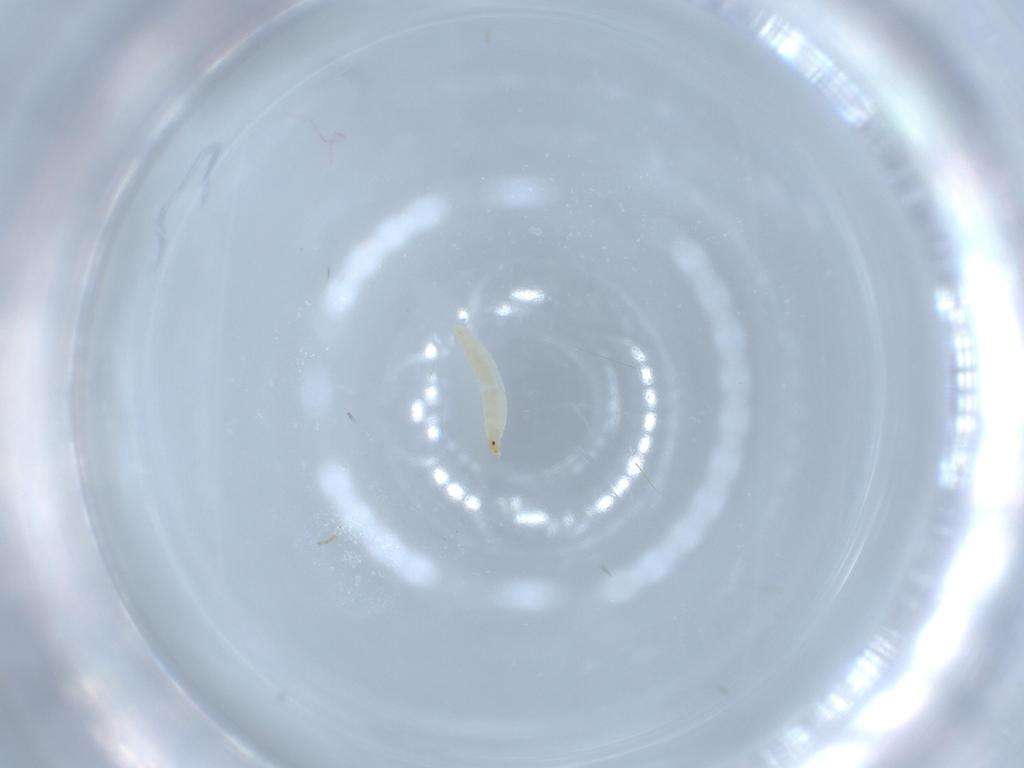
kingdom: Animalia
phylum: Arthropoda
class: Insecta
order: Blattodea
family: Ectobiidae
